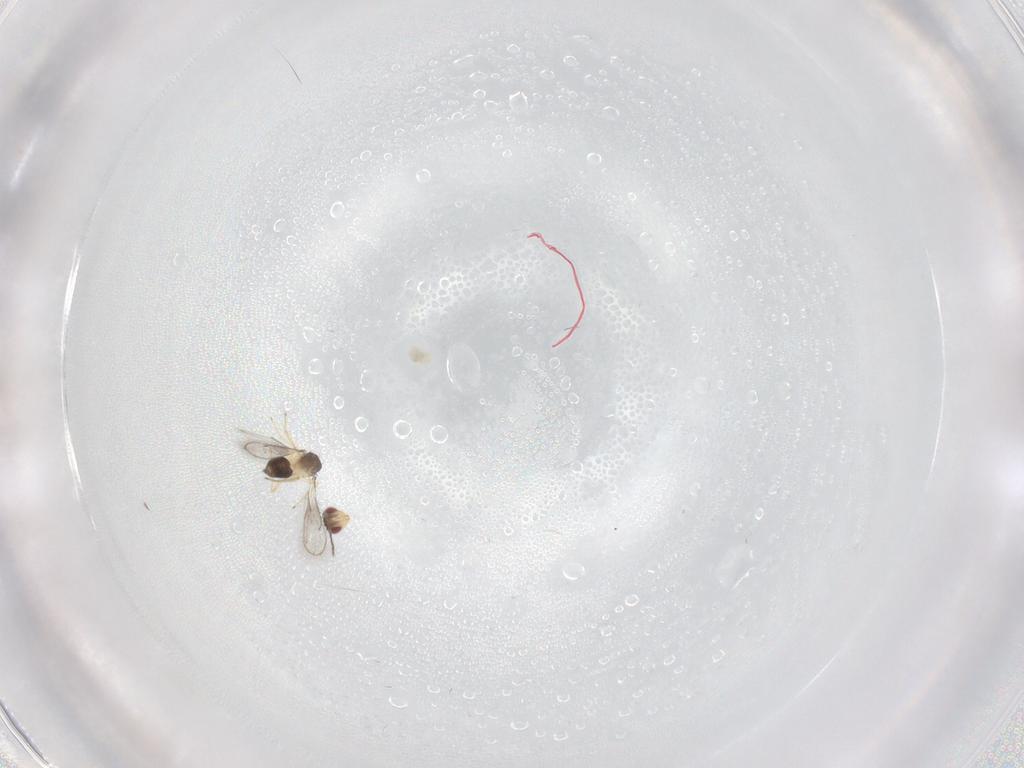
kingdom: Animalia
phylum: Arthropoda
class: Insecta
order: Hymenoptera
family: Eulophidae
